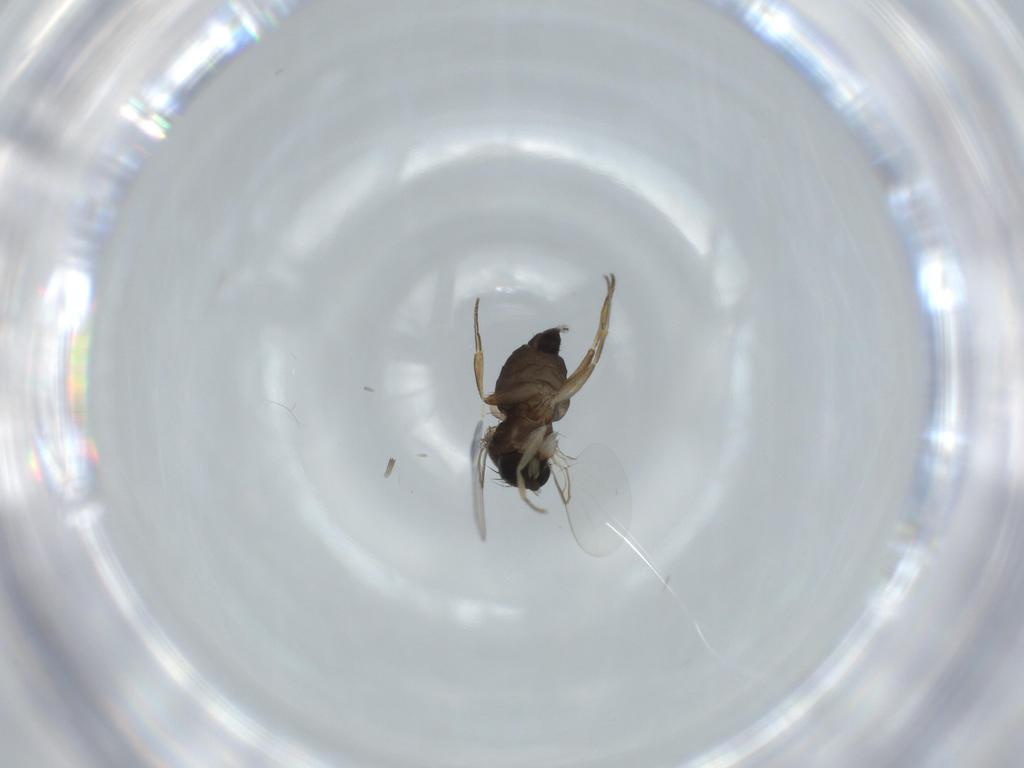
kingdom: Animalia
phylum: Arthropoda
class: Insecta
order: Diptera
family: Phoridae
